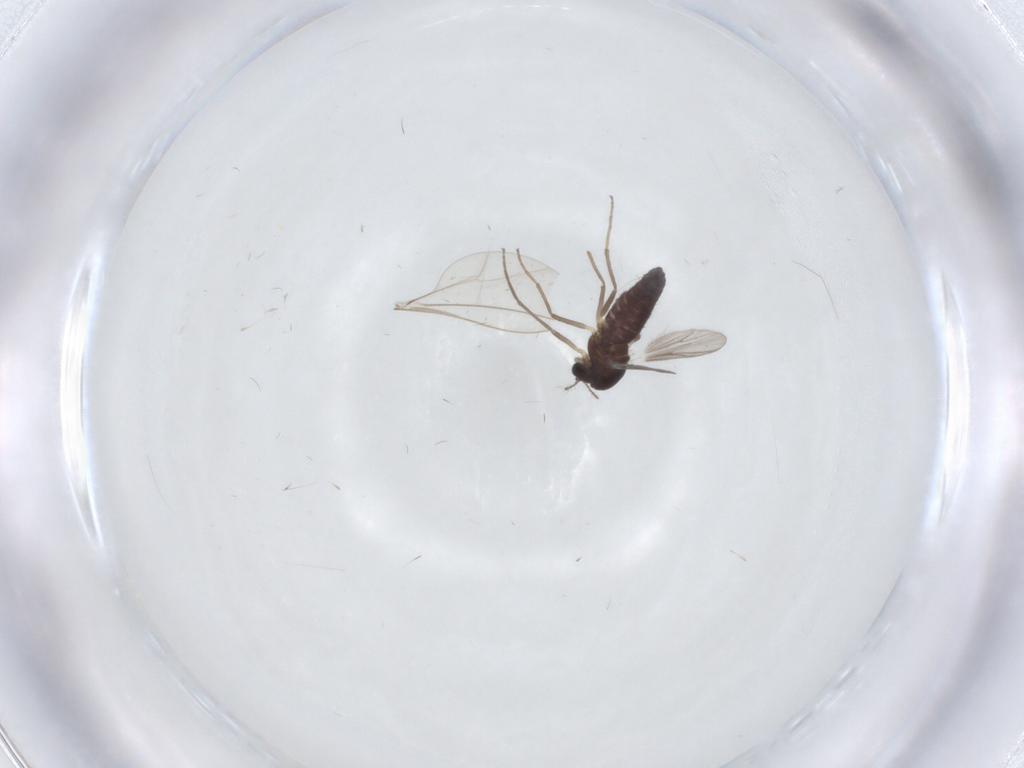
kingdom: Animalia
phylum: Arthropoda
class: Insecta
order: Diptera
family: Chironomidae
